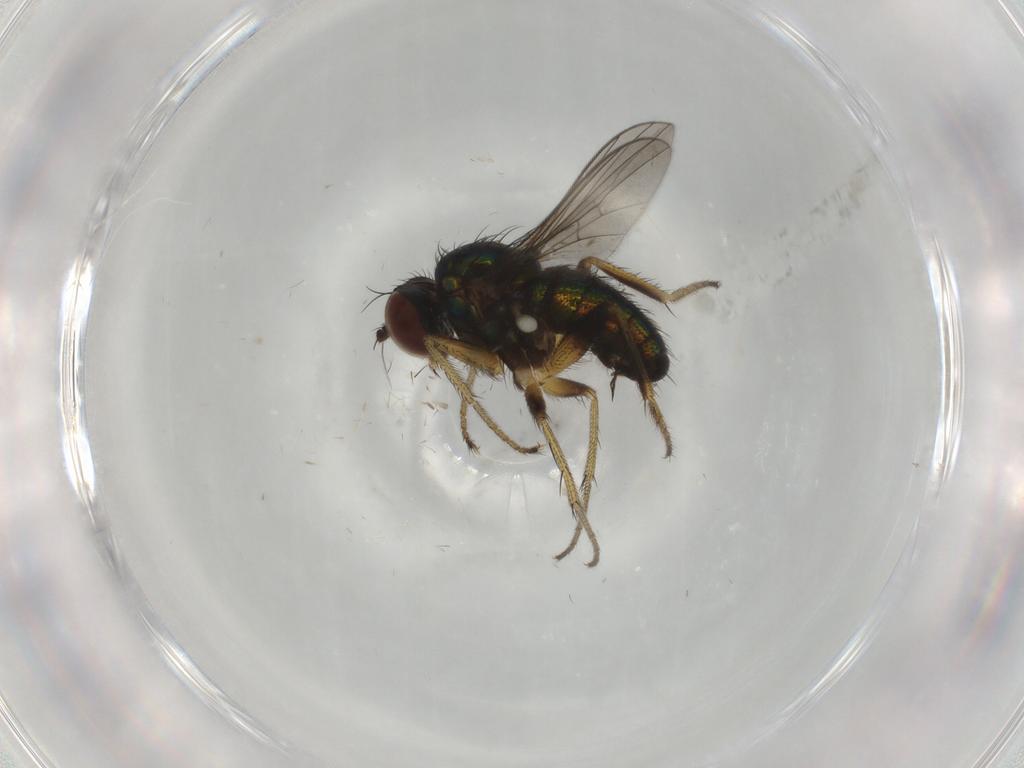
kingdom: Animalia
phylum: Arthropoda
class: Insecta
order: Diptera
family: Dolichopodidae
